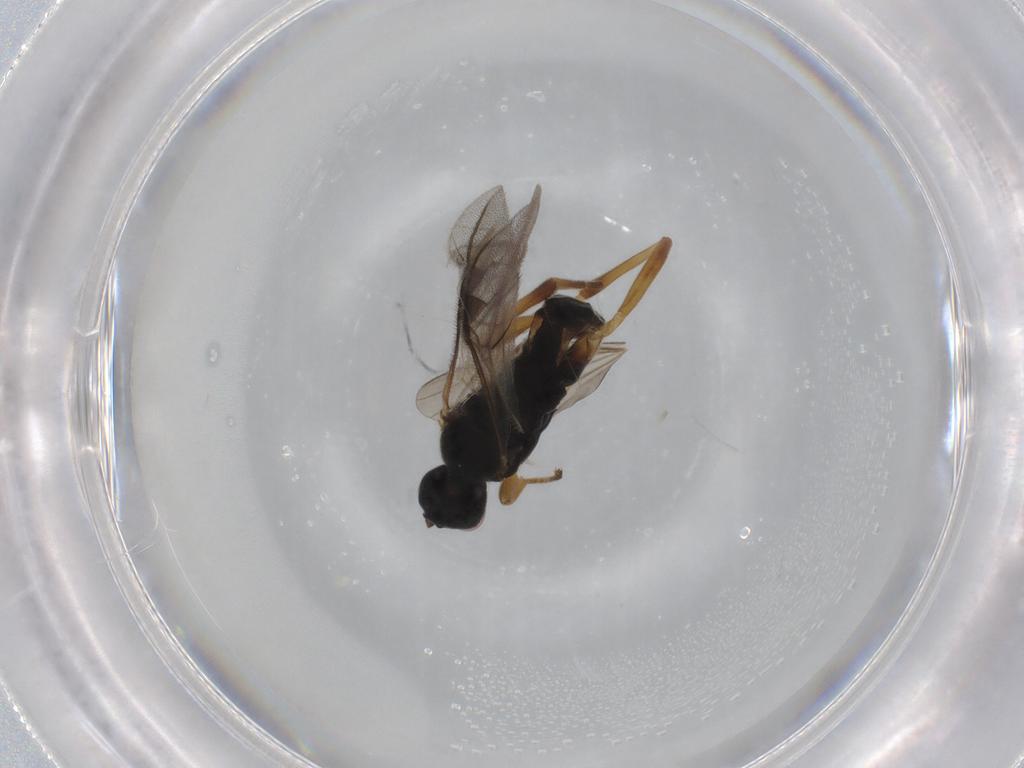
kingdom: Animalia
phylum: Arthropoda
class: Insecta
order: Hymenoptera
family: Braconidae
